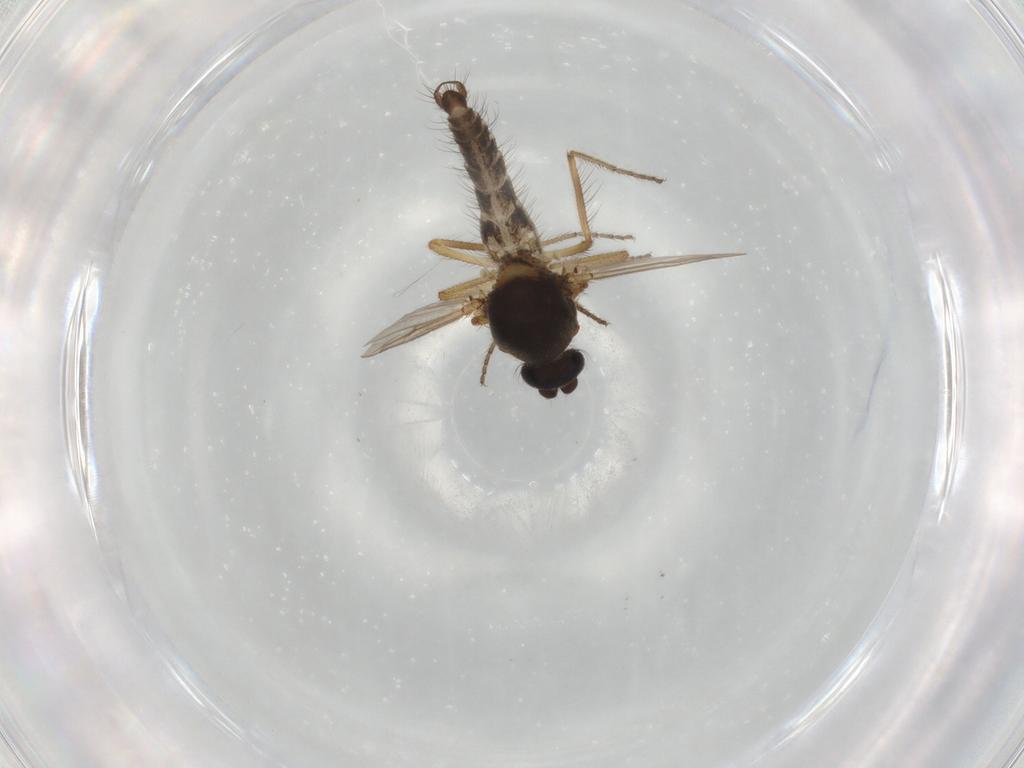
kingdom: Animalia
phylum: Arthropoda
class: Insecta
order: Diptera
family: Ceratopogonidae
